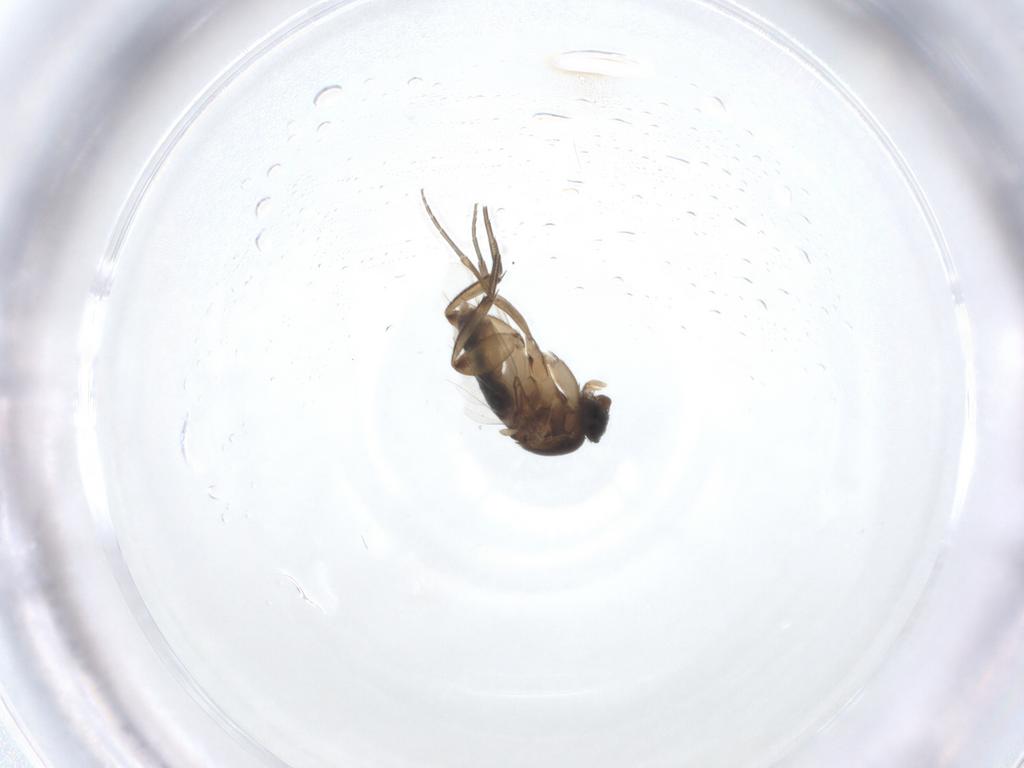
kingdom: Animalia
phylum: Arthropoda
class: Insecta
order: Diptera
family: Phoridae
